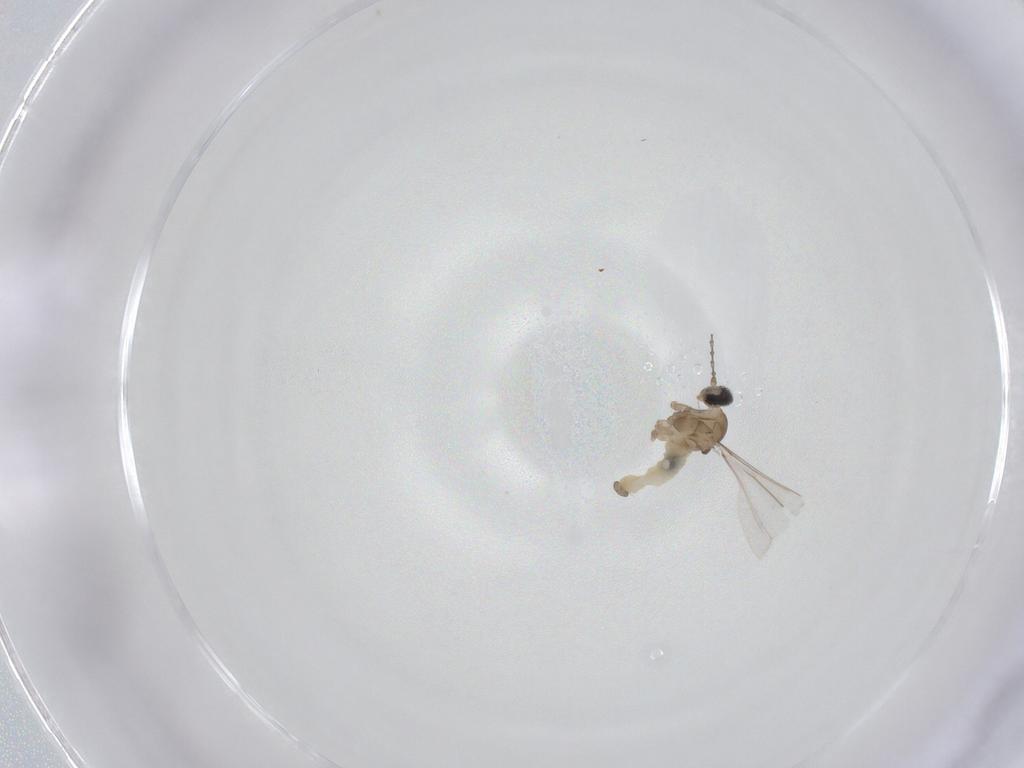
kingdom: Animalia
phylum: Arthropoda
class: Insecta
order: Diptera
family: Cecidomyiidae
